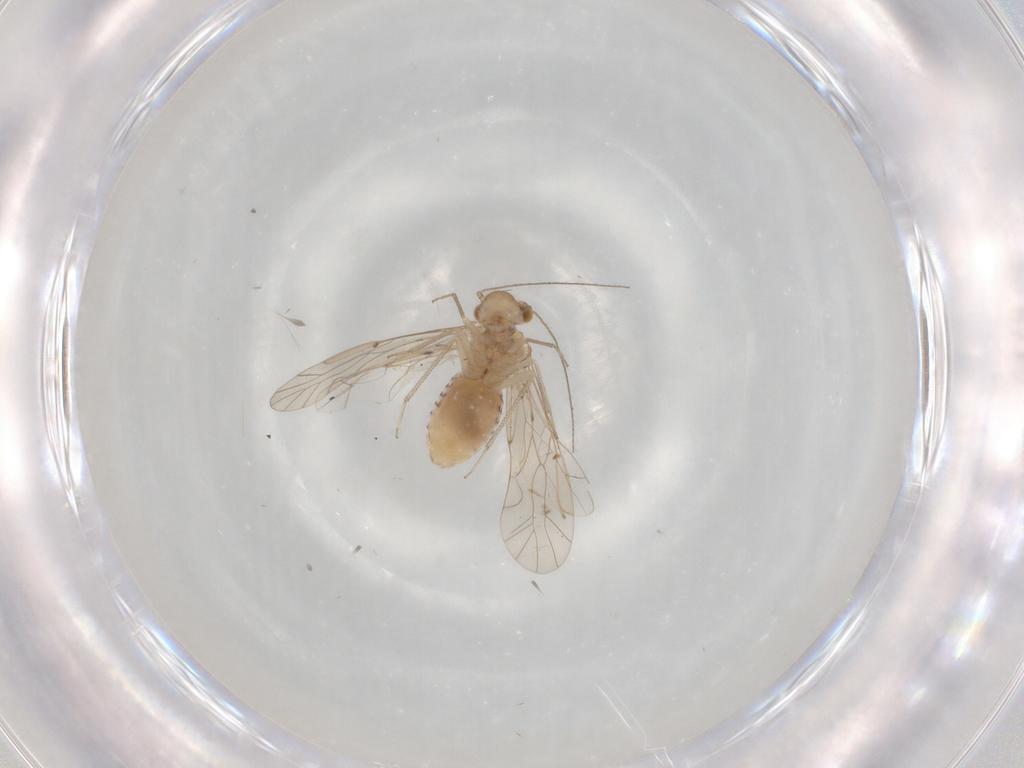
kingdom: Animalia
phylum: Arthropoda
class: Insecta
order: Psocodea
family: Lachesillidae
